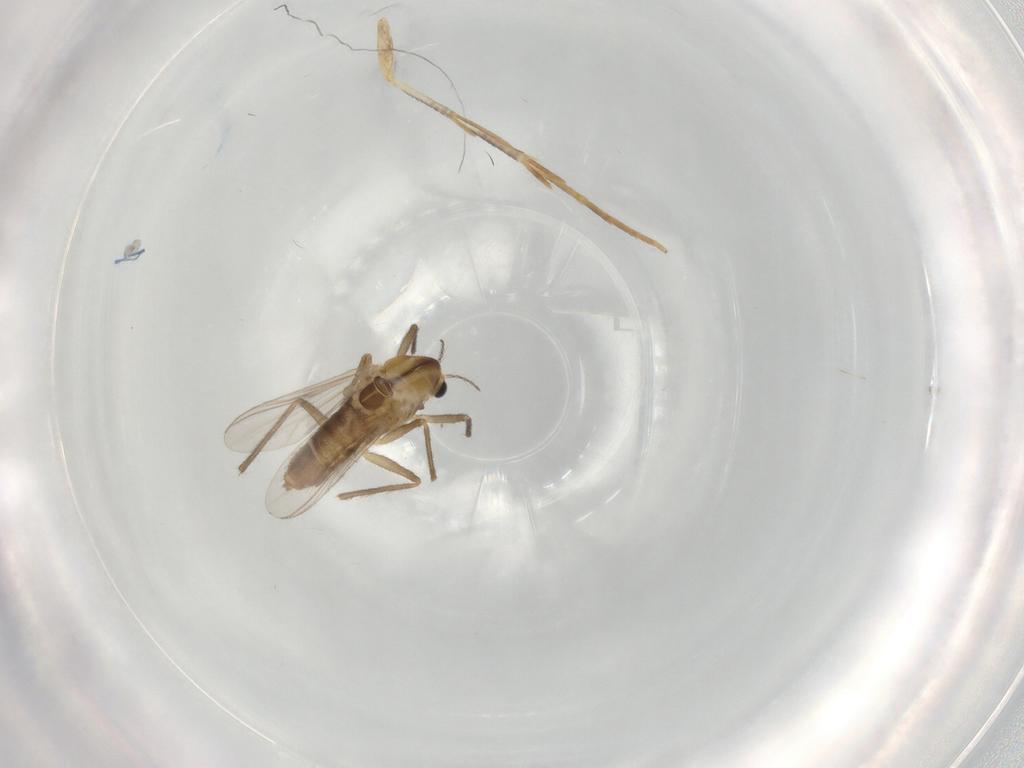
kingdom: Animalia
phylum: Arthropoda
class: Insecta
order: Diptera
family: Chironomidae
